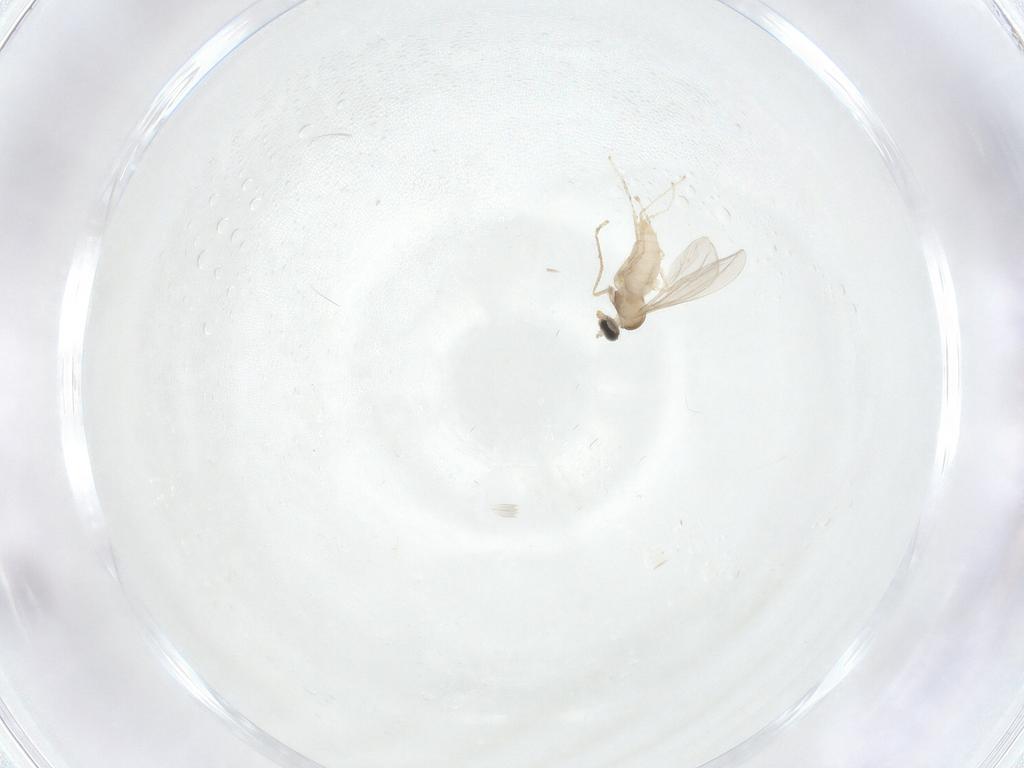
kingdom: Animalia
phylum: Arthropoda
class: Insecta
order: Diptera
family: Cecidomyiidae
